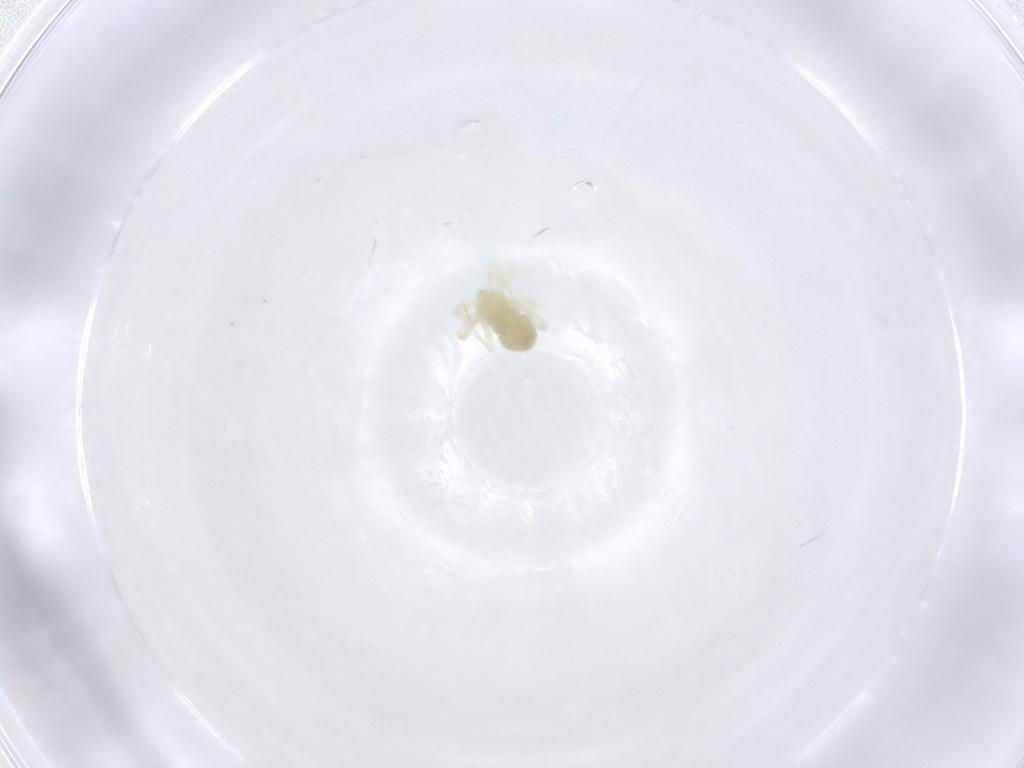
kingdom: Animalia
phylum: Arthropoda
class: Arachnida
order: Trombidiformes
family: Anystidae
